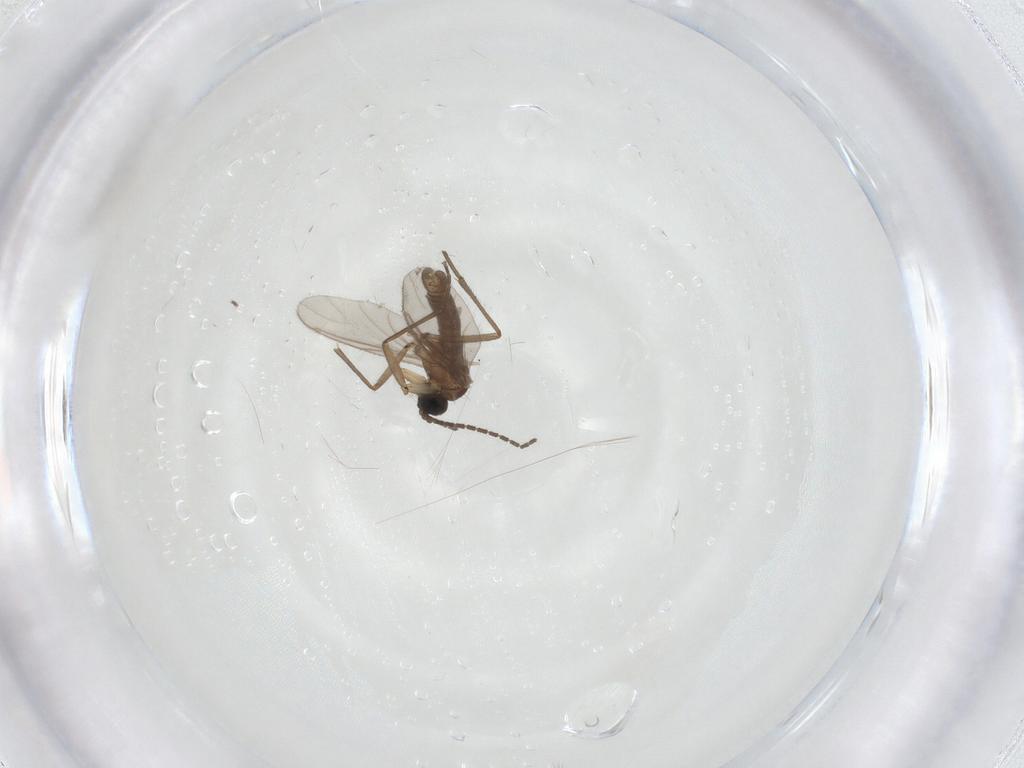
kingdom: Animalia
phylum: Arthropoda
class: Insecta
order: Diptera
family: Sciaridae
